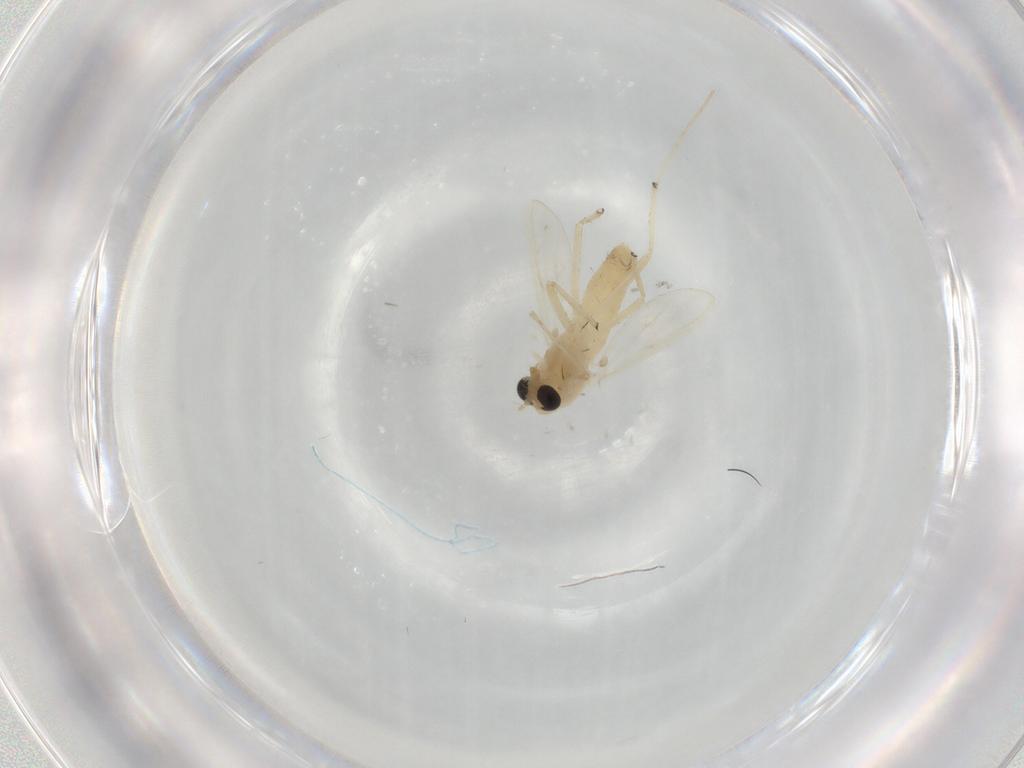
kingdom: Animalia
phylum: Arthropoda
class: Insecta
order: Diptera
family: Chironomidae
